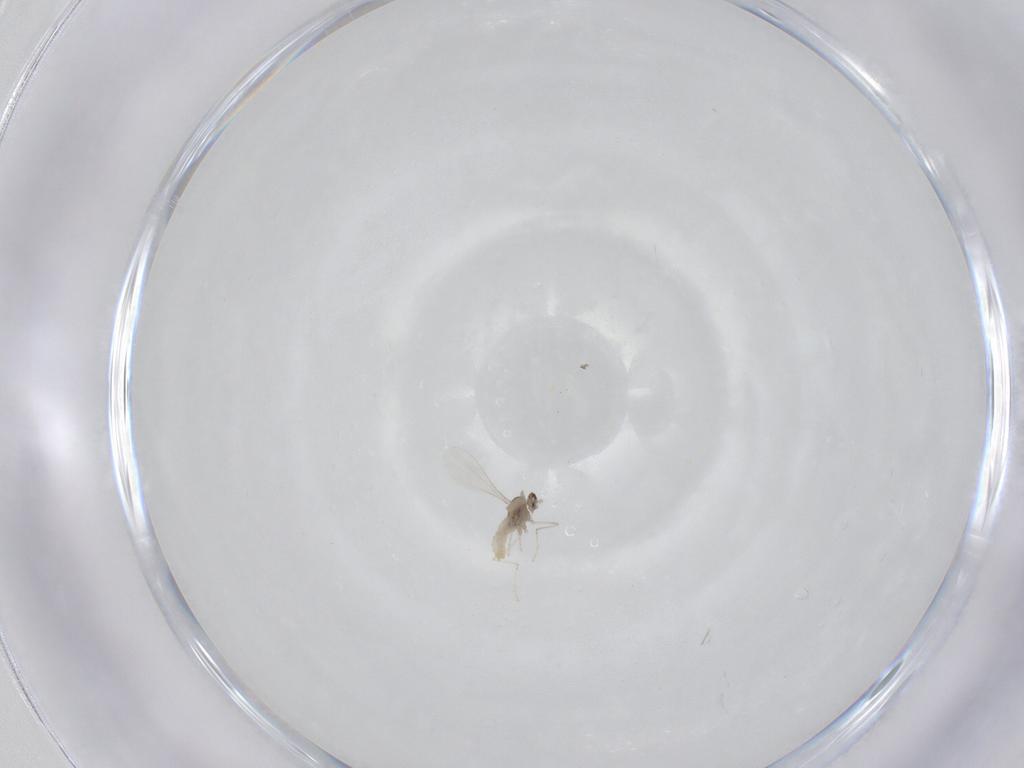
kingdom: Animalia
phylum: Arthropoda
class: Insecta
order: Diptera
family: Cecidomyiidae
